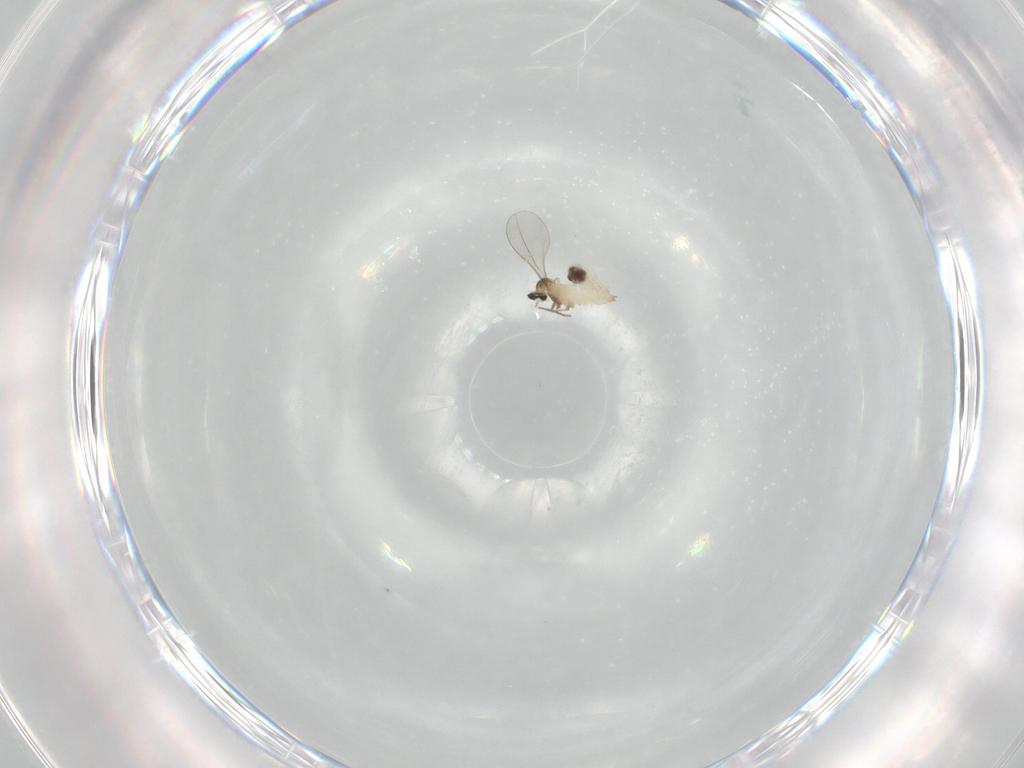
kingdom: Animalia
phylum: Arthropoda
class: Insecta
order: Diptera
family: Cecidomyiidae
